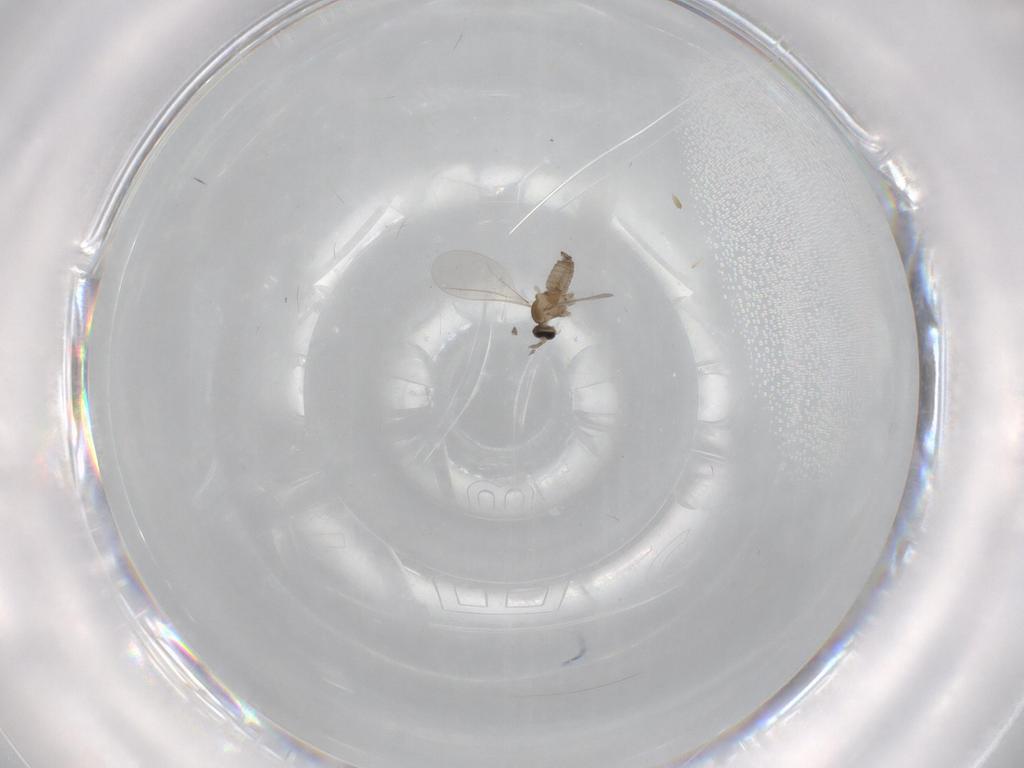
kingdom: Animalia
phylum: Arthropoda
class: Insecta
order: Diptera
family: Cecidomyiidae
